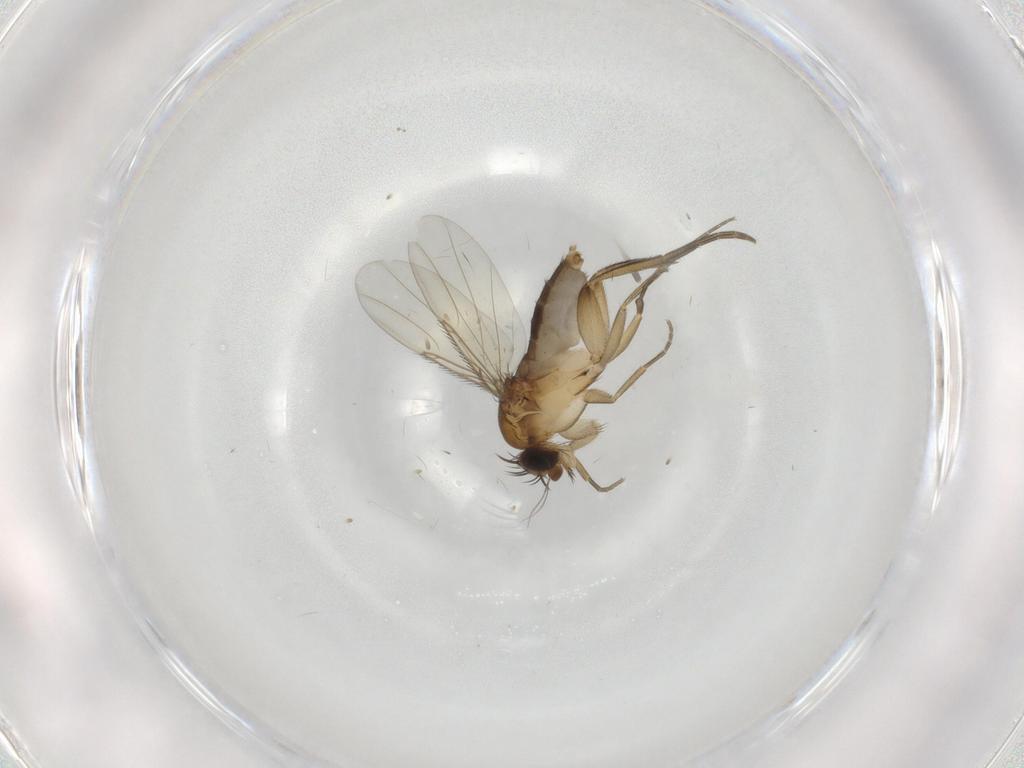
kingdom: Animalia
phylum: Arthropoda
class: Insecta
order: Diptera
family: Phoridae
